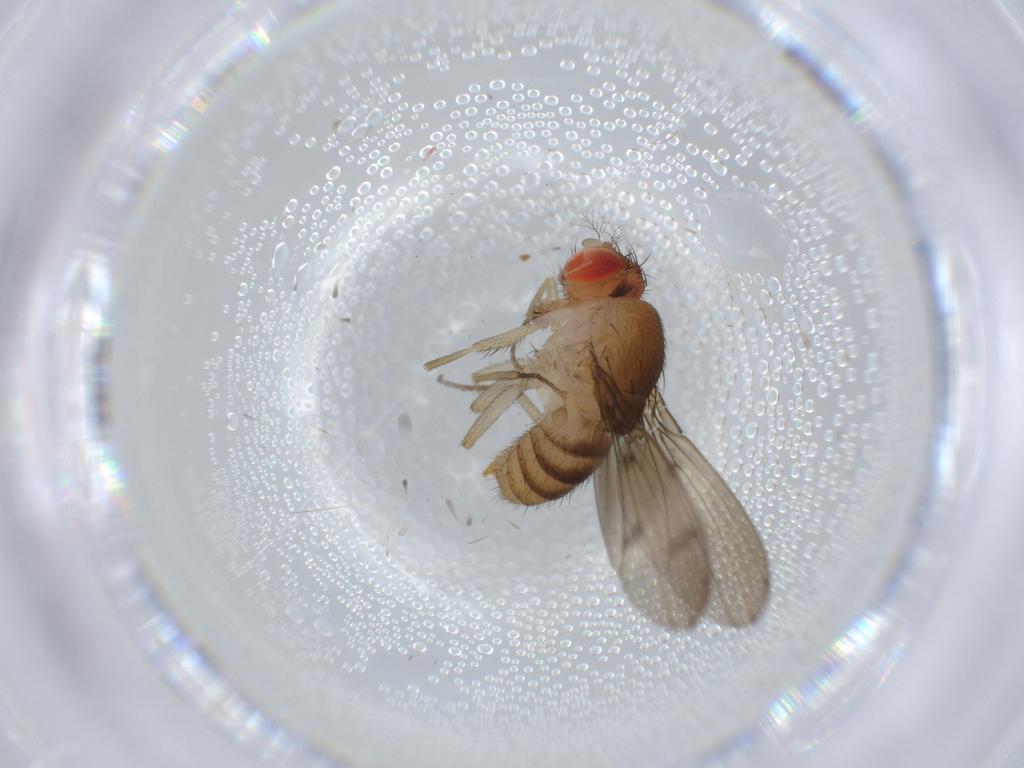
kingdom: Animalia
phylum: Arthropoda
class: Insecta
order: Diptera
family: Drosophilidae
